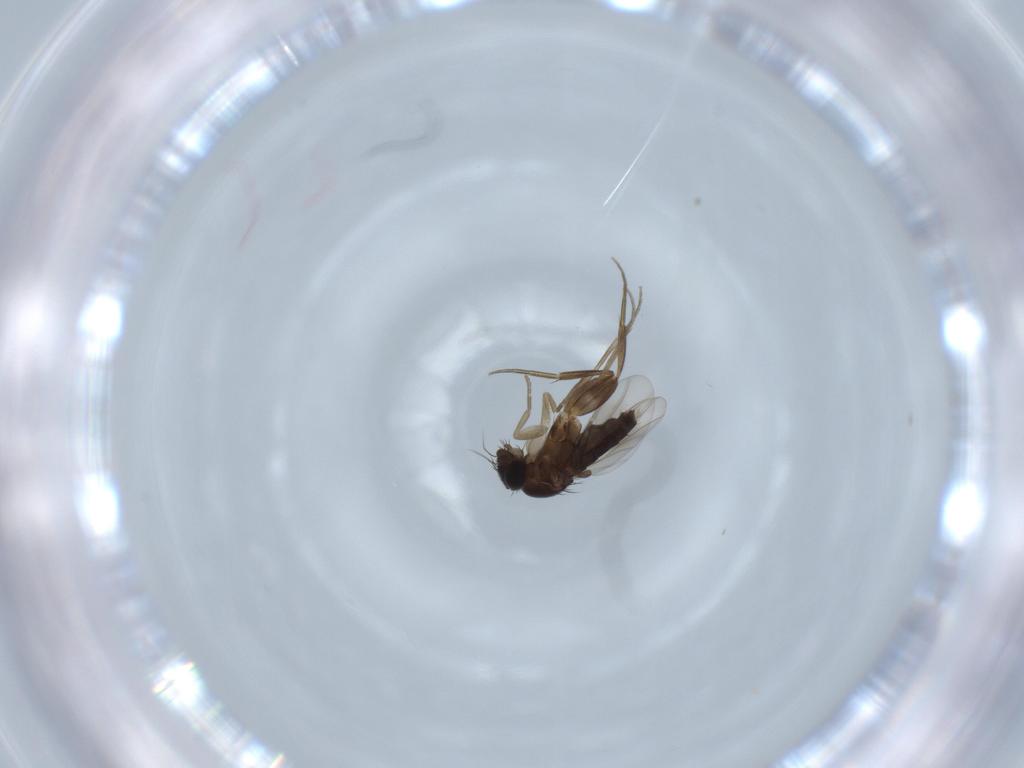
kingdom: Animalia
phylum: Arthropoda
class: Insecta
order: Diptera
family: Phoridae
